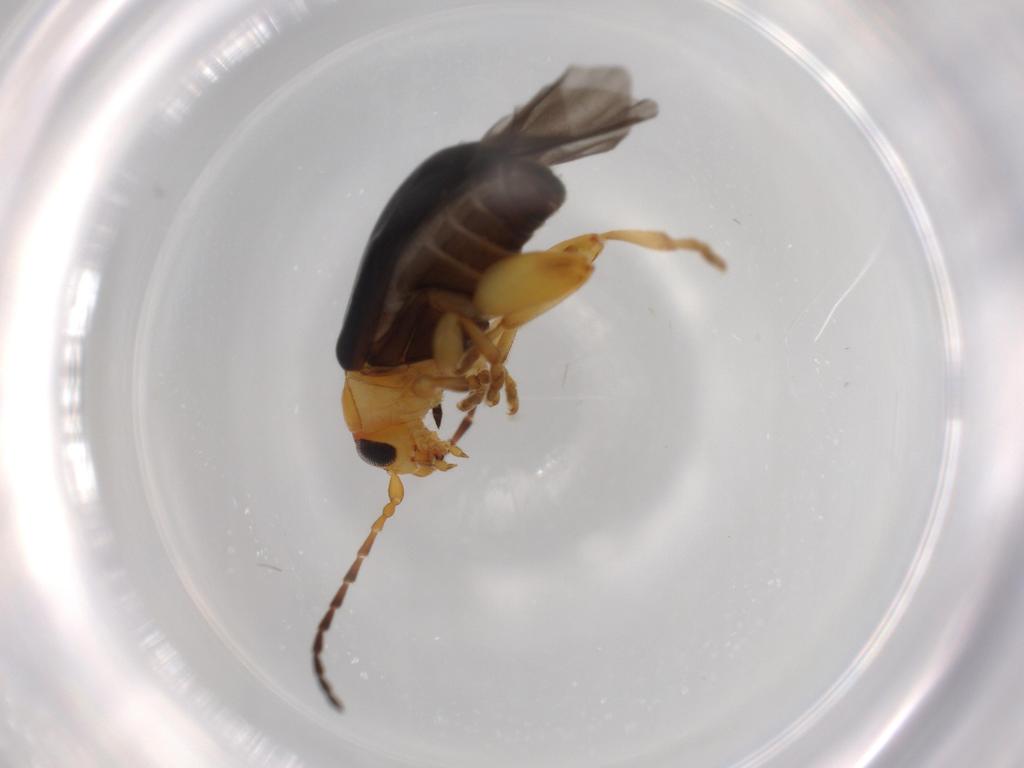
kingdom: Animalia
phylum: Arthropoda
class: Insecta
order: Coleoptera
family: Chrysomelidae
